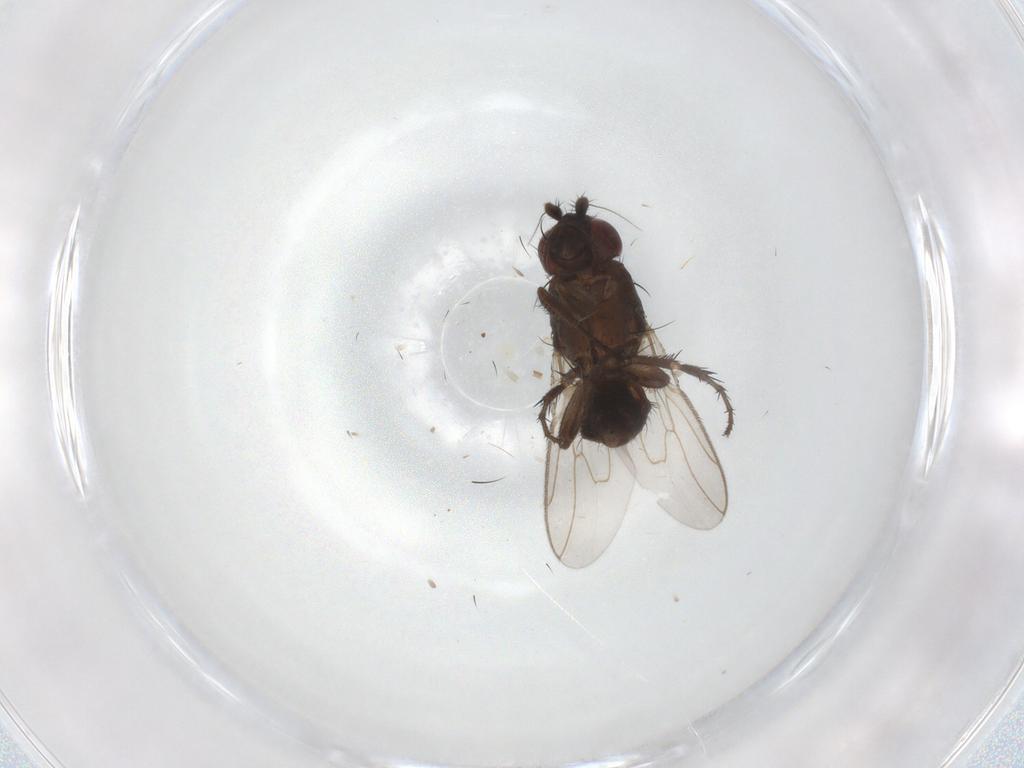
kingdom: Animalia
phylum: Arthropoda
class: Insecta
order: Diptera
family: Sphaeroceridae
